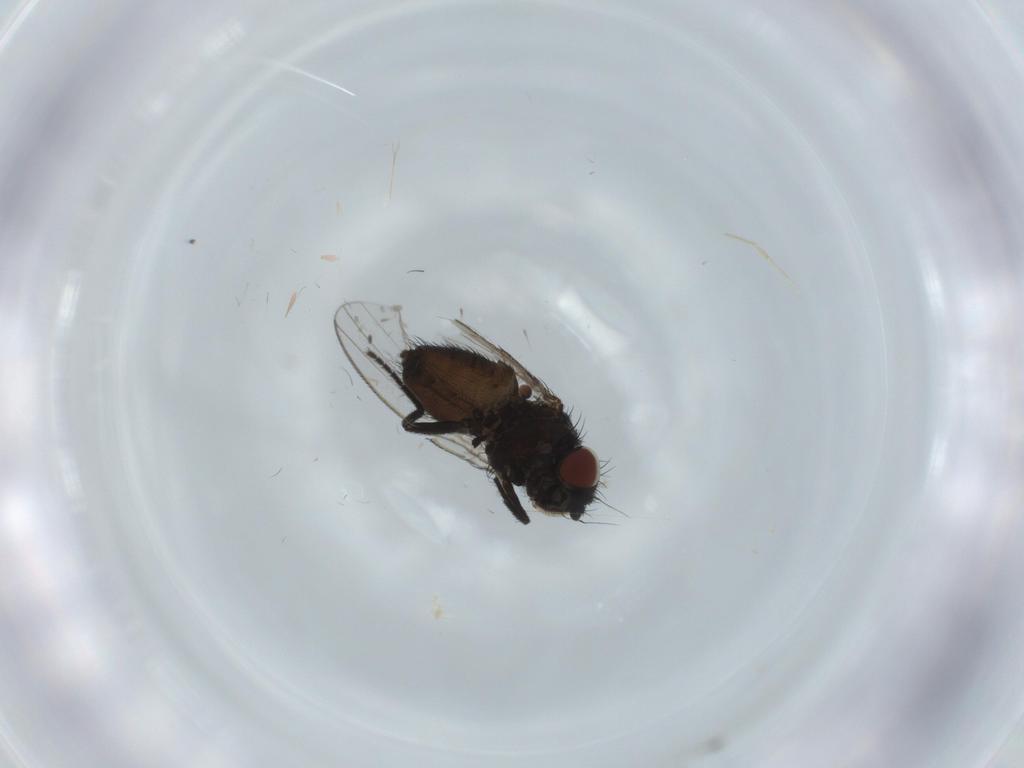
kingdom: Animalia
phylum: Arthropoda
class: Insecta
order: Diptera
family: Milichiidae
